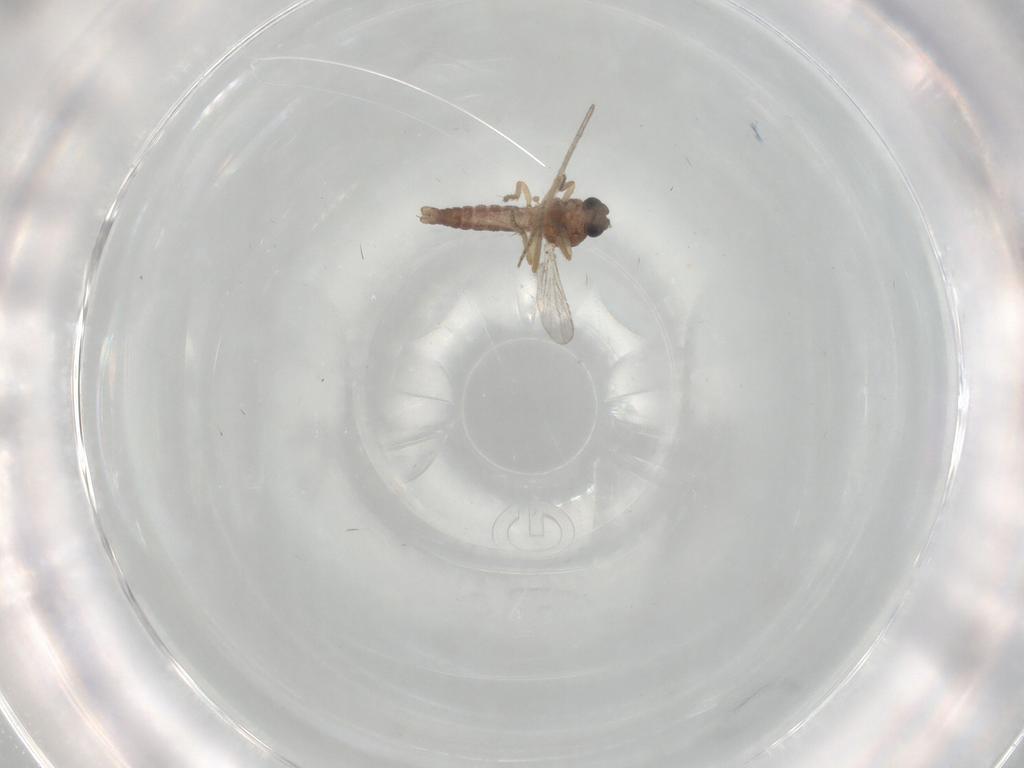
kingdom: Animalia
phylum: Arthropoda
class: Insecta
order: Diptera
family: Ceratopogonidae
